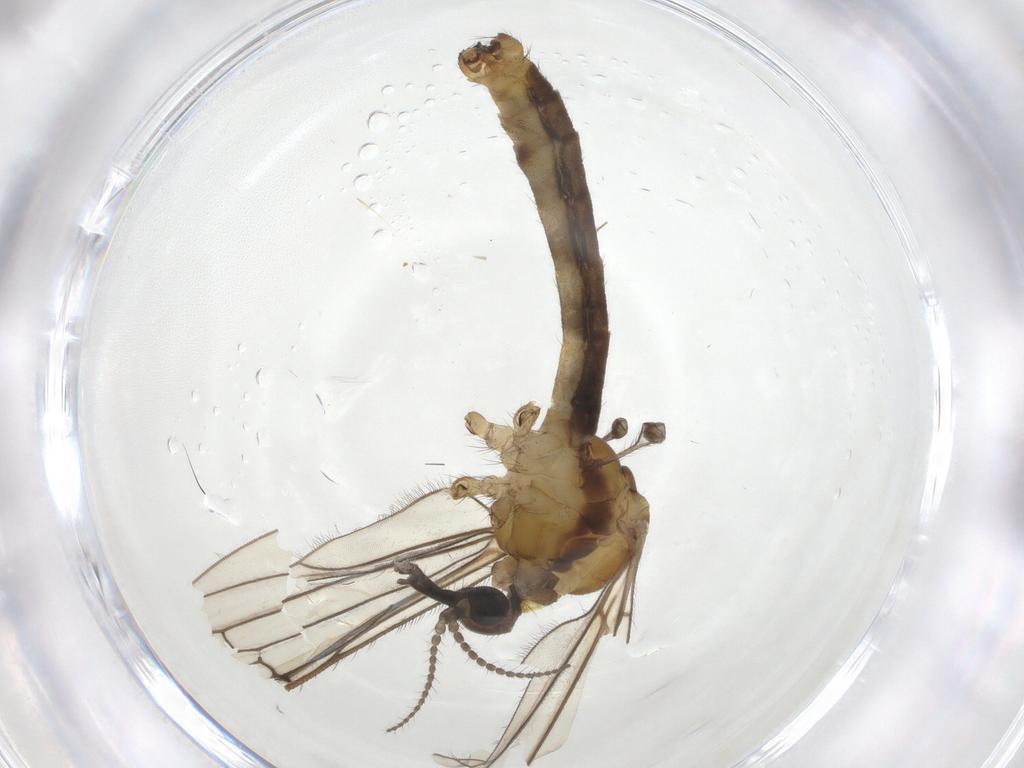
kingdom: Animalia
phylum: Arthropoda
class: Insecta
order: Diptera
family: Limoniidae
